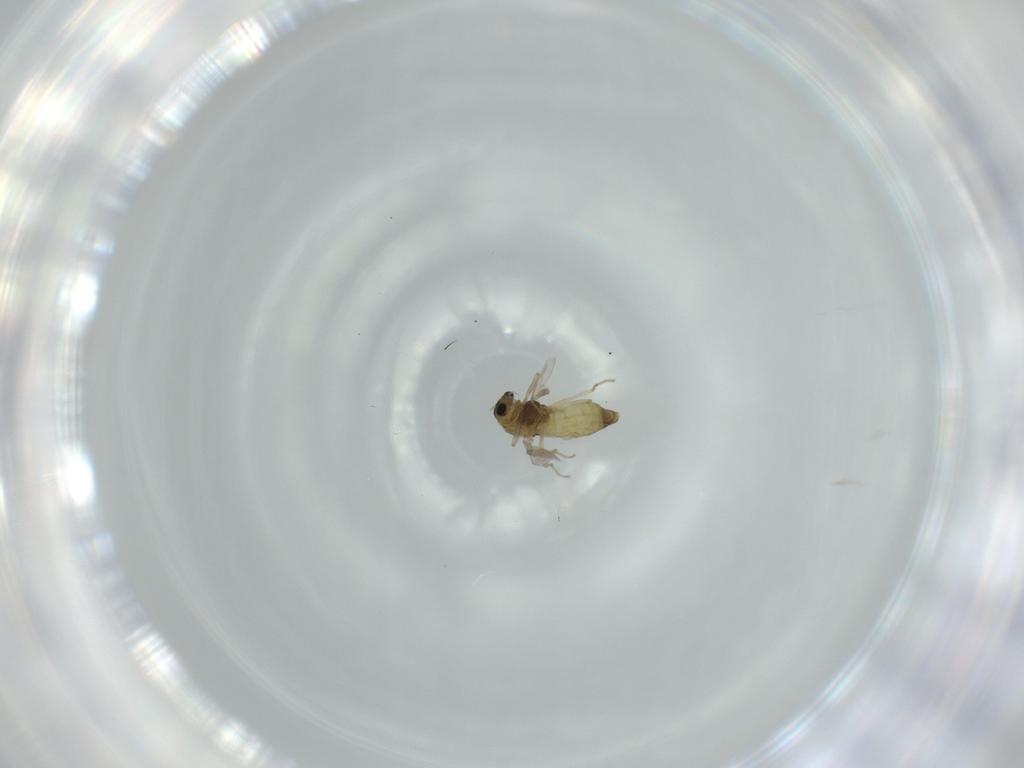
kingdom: Animalia
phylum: Arthropoda
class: Insecta
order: Diptera
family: Chironomidae
